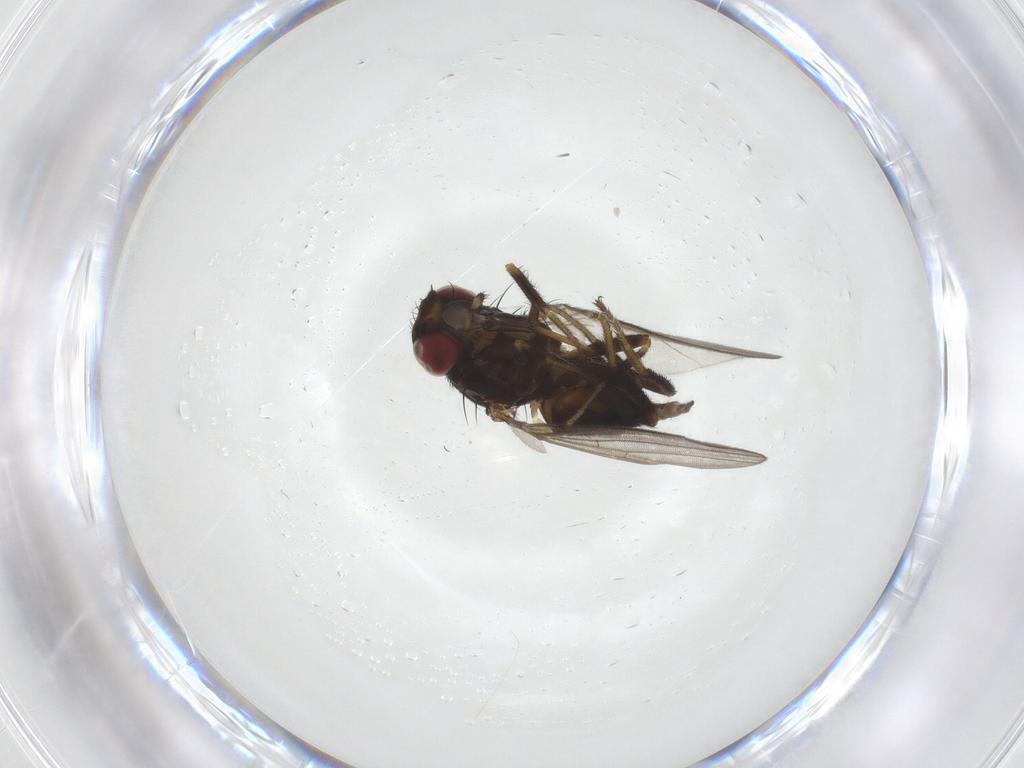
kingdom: Animalia
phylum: Arthropoda
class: Insecta
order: Diptera
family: Milichiidae
